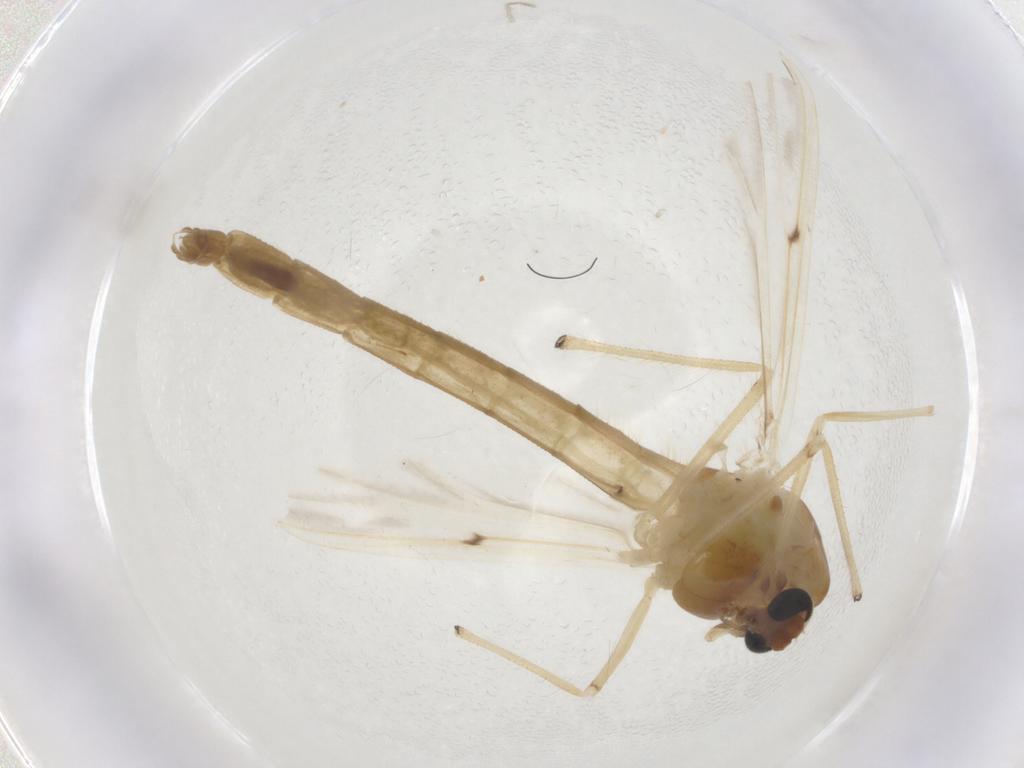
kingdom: Animalia
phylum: Arthropoda
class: Insecta
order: Diptera
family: Chironomidae
